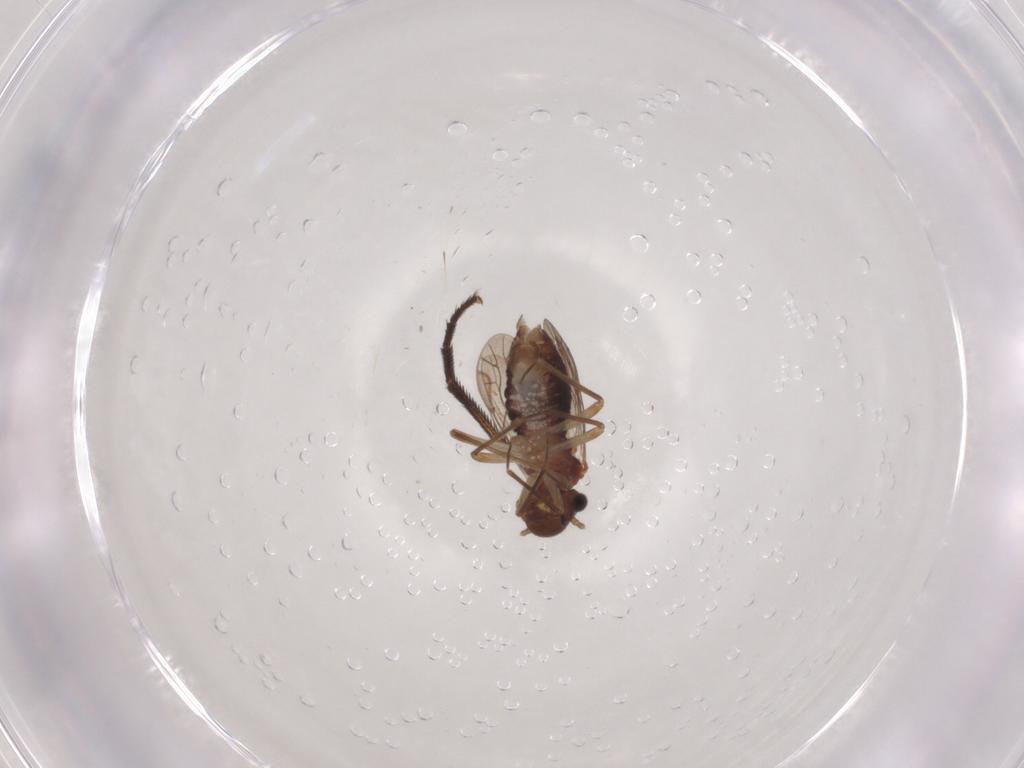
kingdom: Animalia
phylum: Arthropoda
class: Insecta
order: Psocodea
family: Lachesillidae
